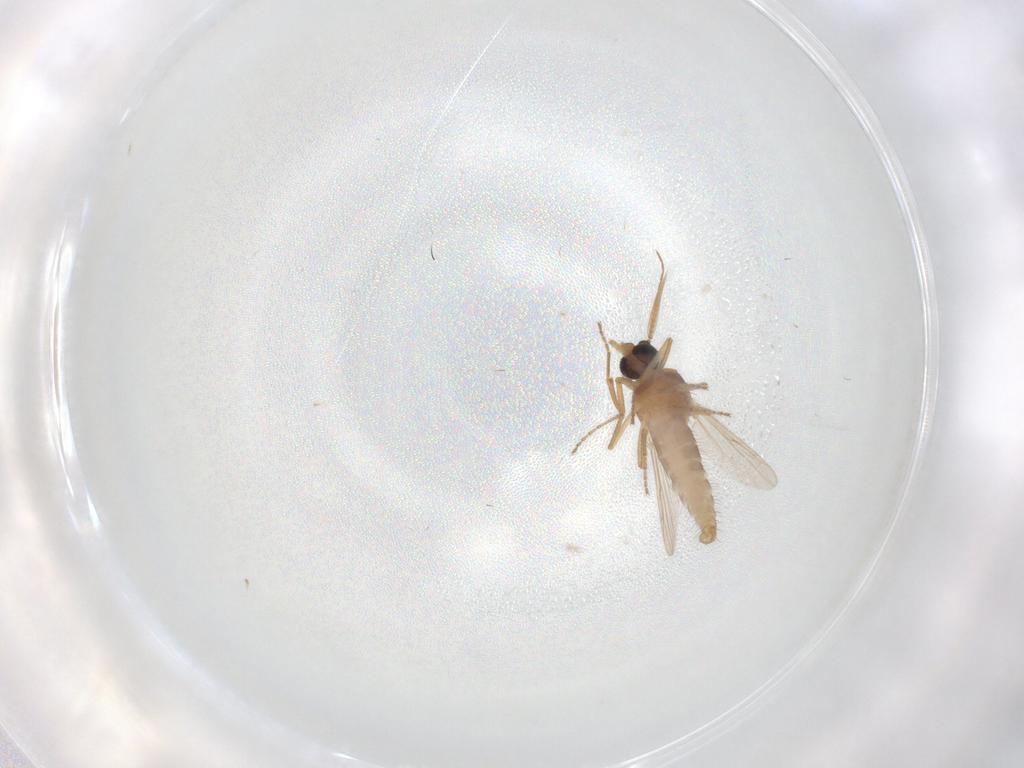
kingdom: Animalia
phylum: Arthropoda
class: Insecta
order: Diptera
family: Ceratopogonidae
